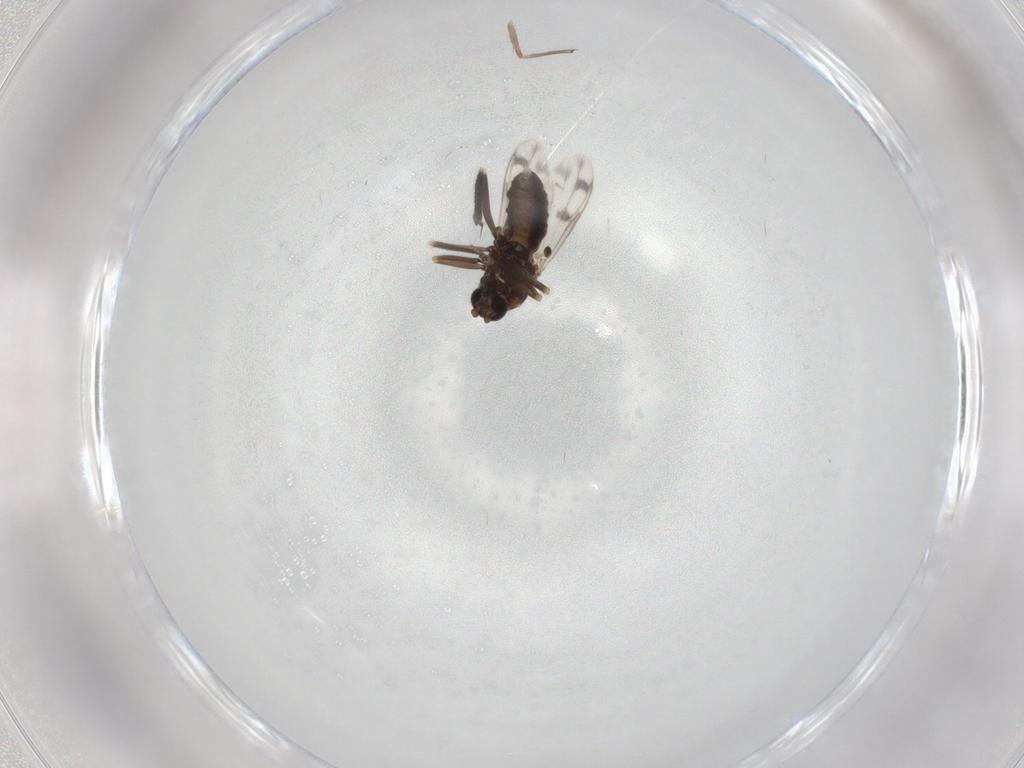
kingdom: Animalia
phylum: Arthropoda
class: Insecta
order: Diptera
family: Ceratopogonidae
